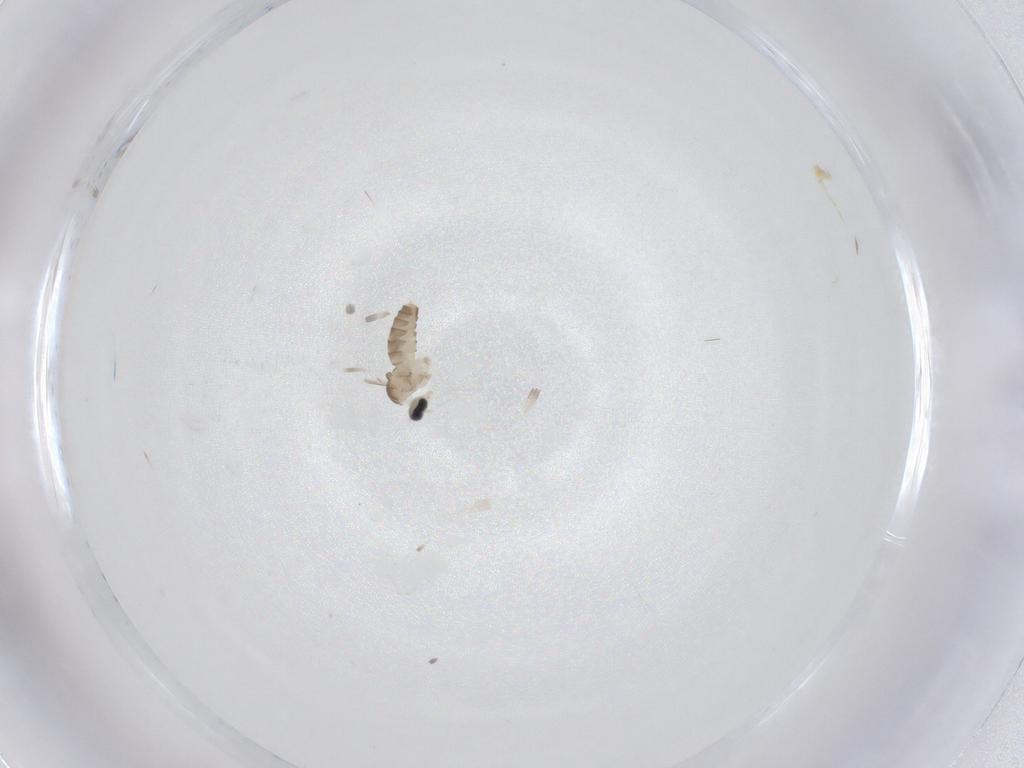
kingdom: Animalia
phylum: Arthropoda
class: Insecta
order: Diptera
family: Cecidomyiidae
